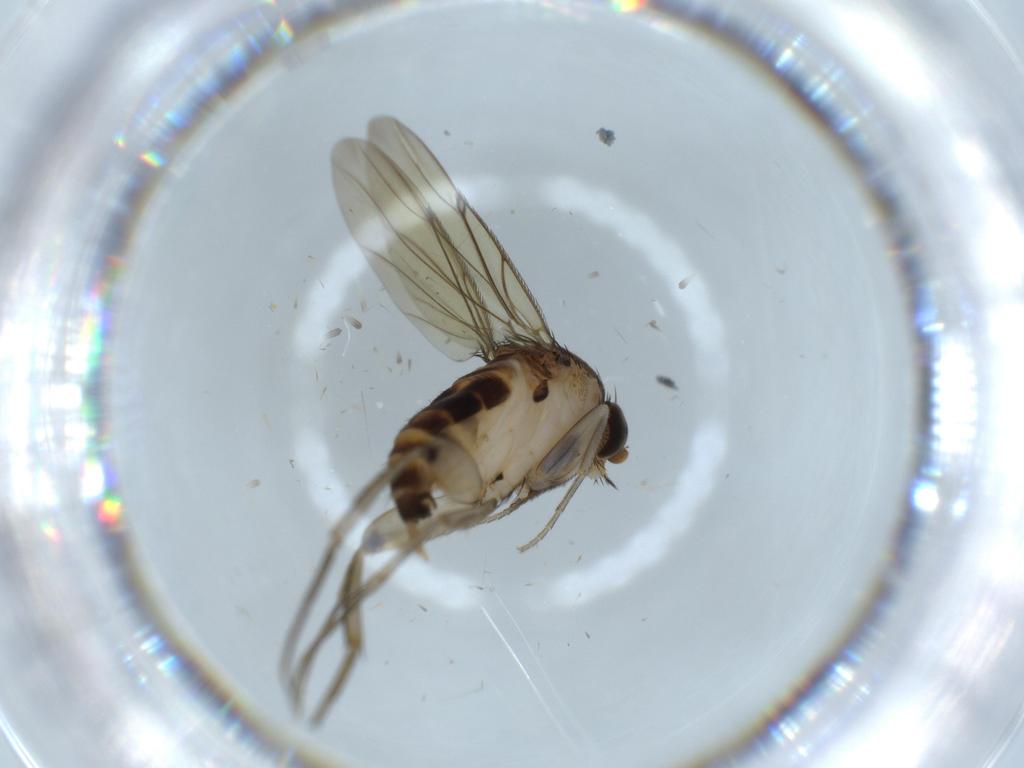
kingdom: Animalia
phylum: Arthropoda
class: Insecta
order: Diptera
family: Phoridae
